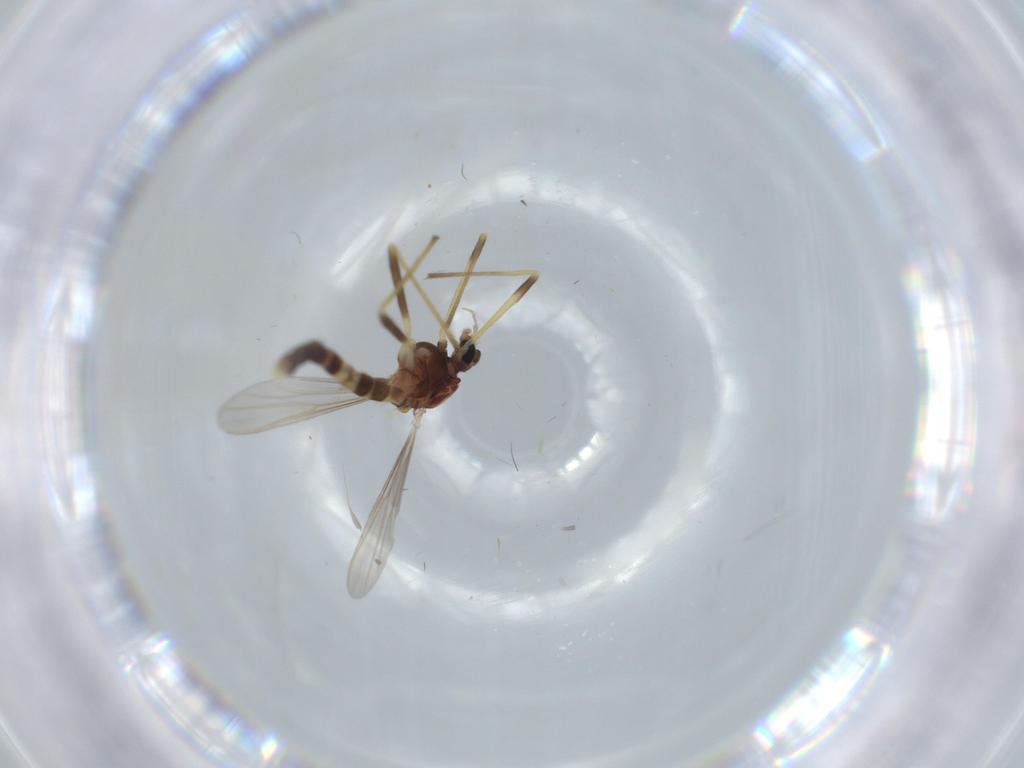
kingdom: Animalia
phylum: Arthropoda
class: Insecta
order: Diptera
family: Chironomidae
